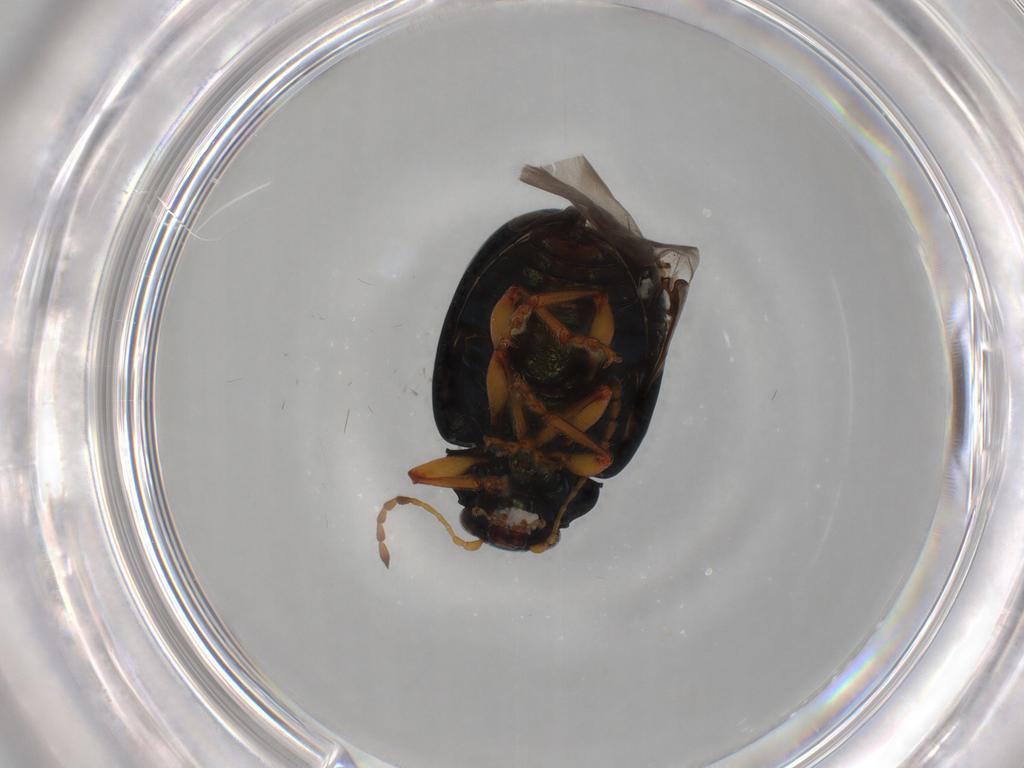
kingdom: Animalia
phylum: Arthropoda
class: Insecta
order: Coleoptera
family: Chrysomelidae
